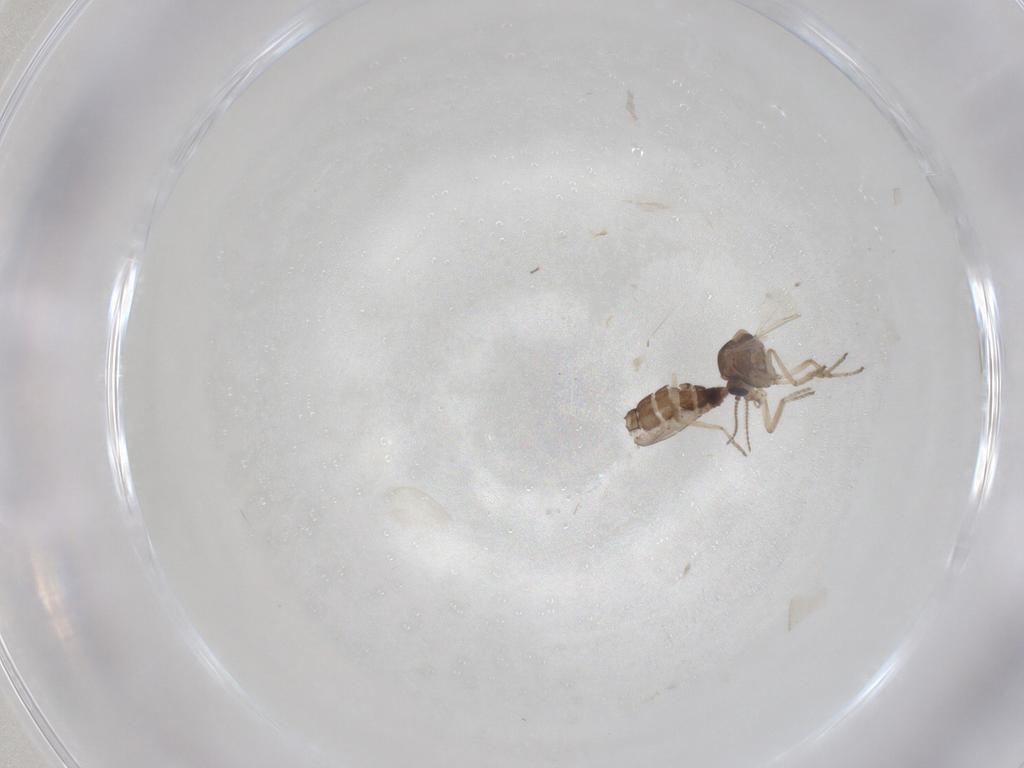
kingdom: Animalia
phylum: Arthropoda
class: Insecta
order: Diptera
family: Ceratopogonidae
